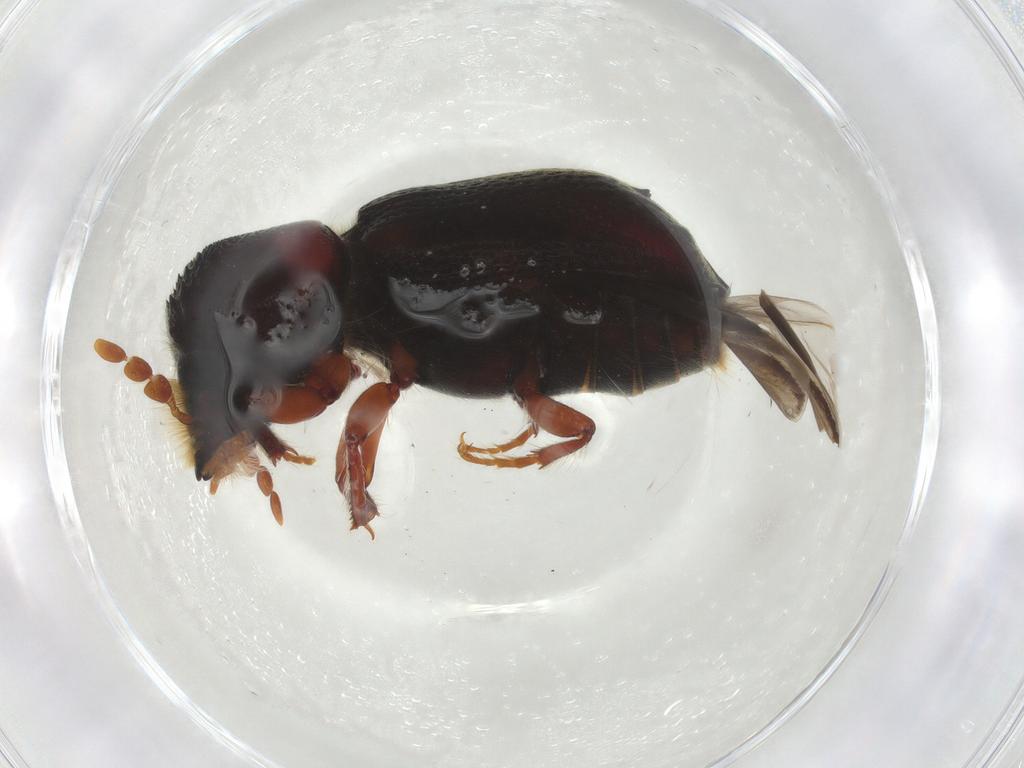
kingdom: Animalia
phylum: Arthropoda
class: Insecta
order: Coleoptera
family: Bostrichidae
